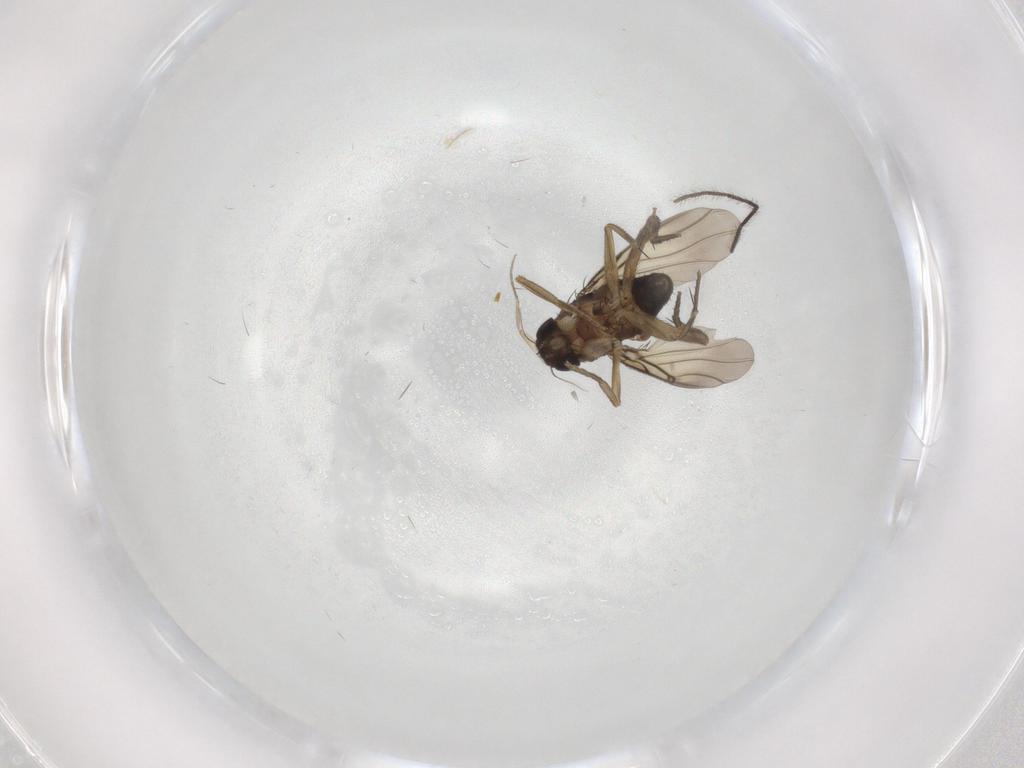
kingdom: Animalia
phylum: Arthropoda
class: Insecta
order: Diptera
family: Phoridae
